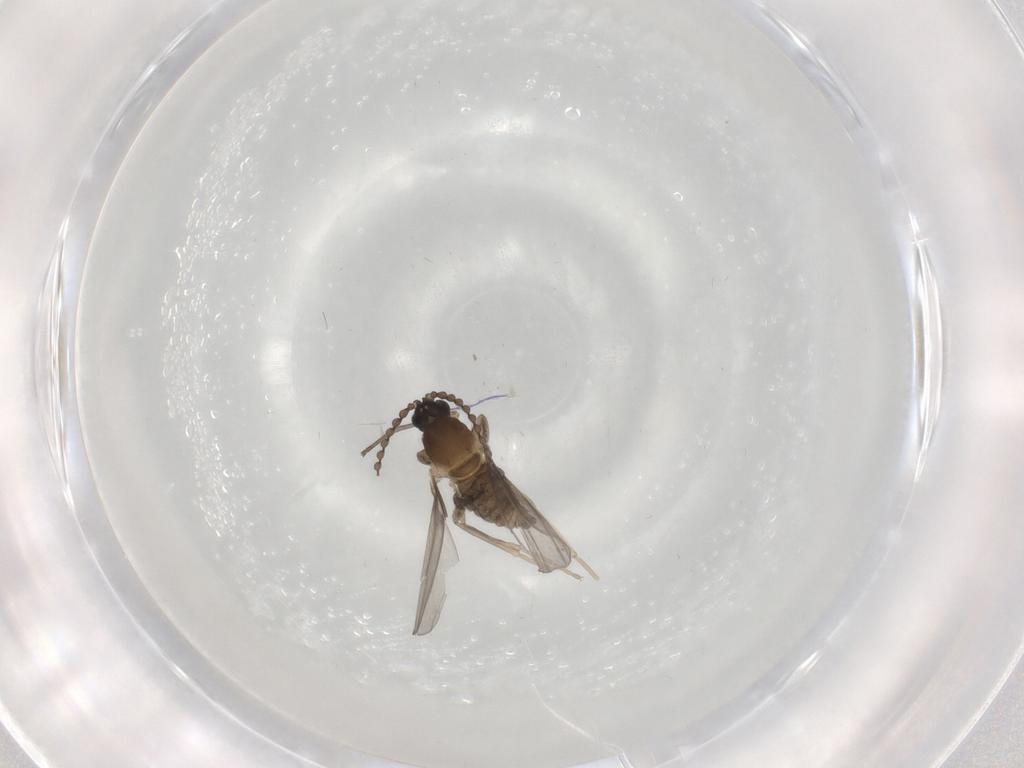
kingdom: Animalia
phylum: Arthropoda
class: Insecta
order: Diptera
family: Cecidomyiidae
